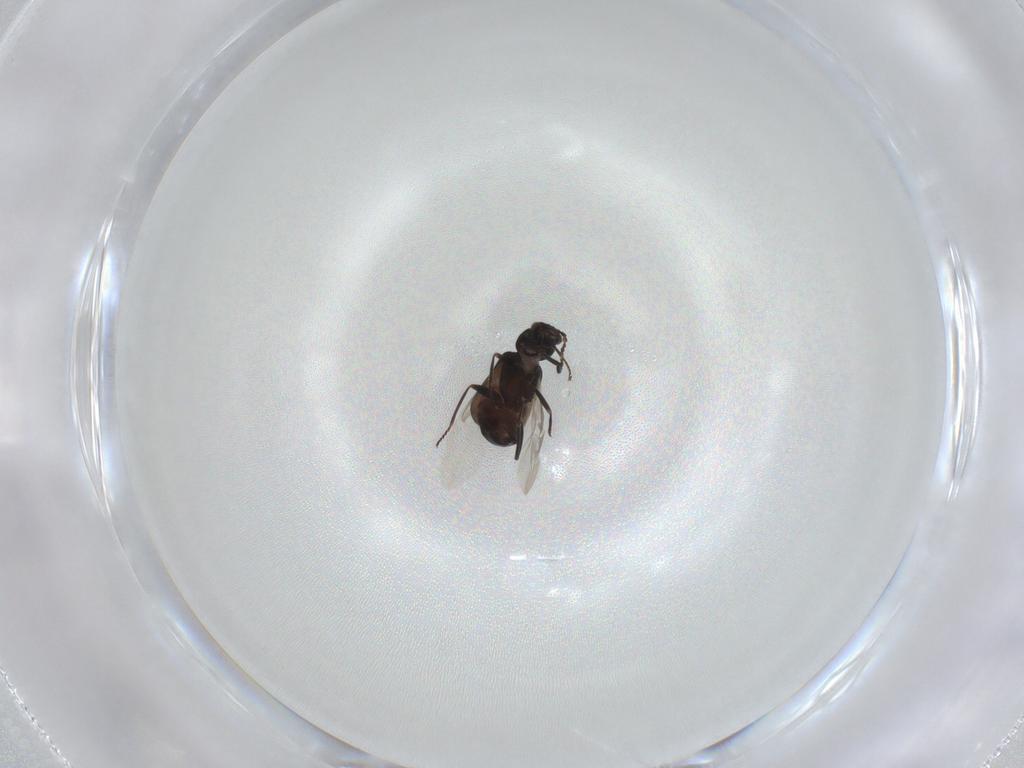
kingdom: Animalia
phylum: Arthropoda
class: Insecta
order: Coleoptera
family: Melyridae
